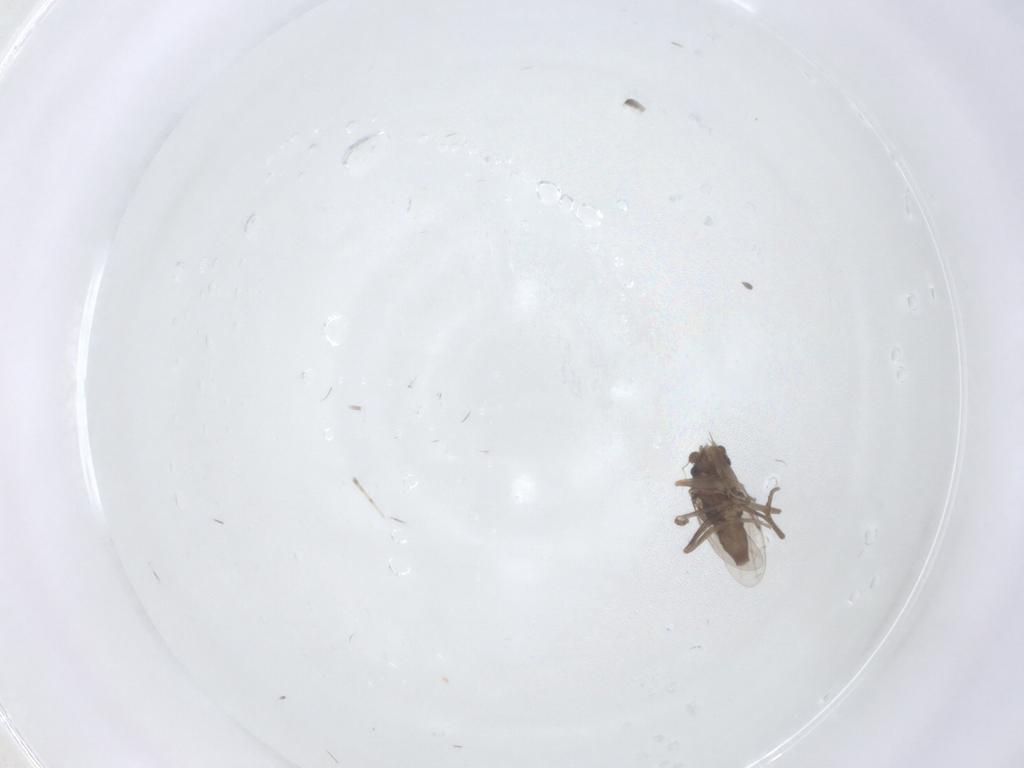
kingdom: Animalia
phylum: Arthropoda
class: Insecta
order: Diptera
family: Phoridae
